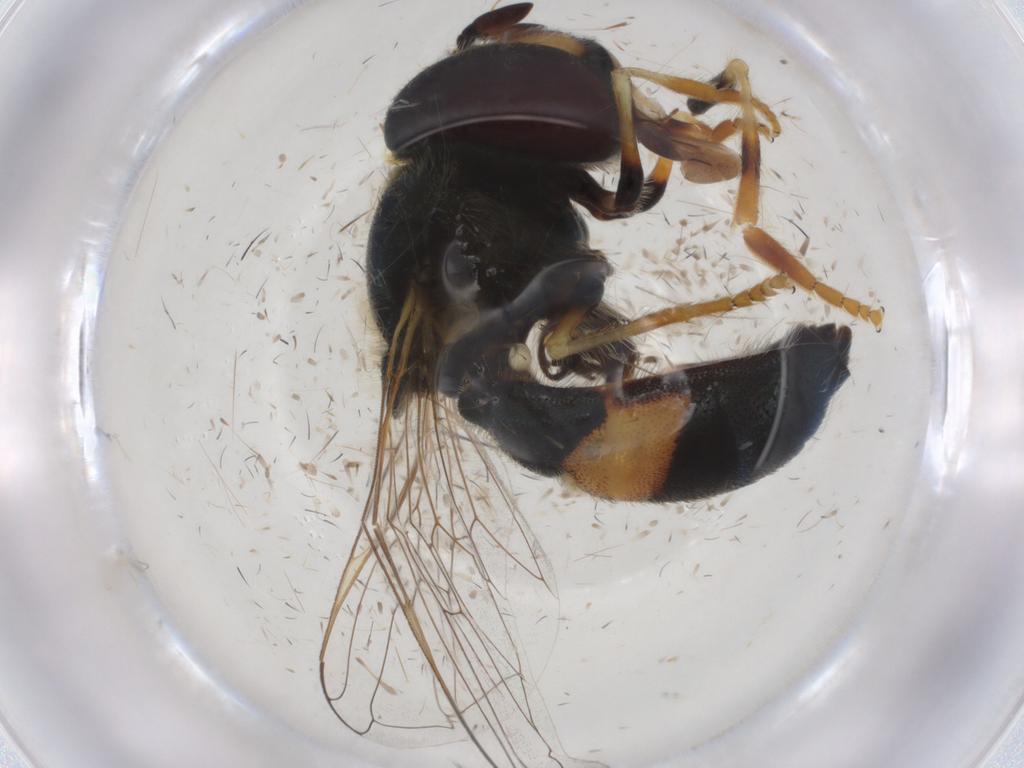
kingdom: Animalia
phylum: Arthropoda
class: Insecta
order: Diptera
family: Syrphidae
